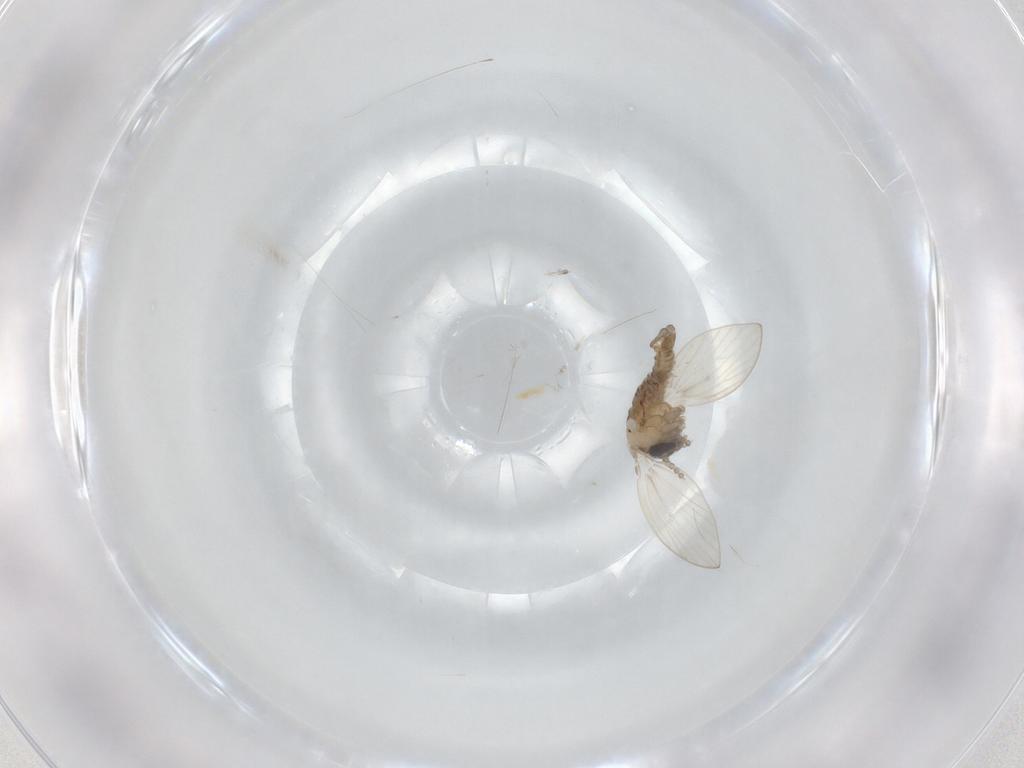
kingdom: Animalia
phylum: Arthropoda
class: Insecta
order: Diptera
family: Psychodidae
